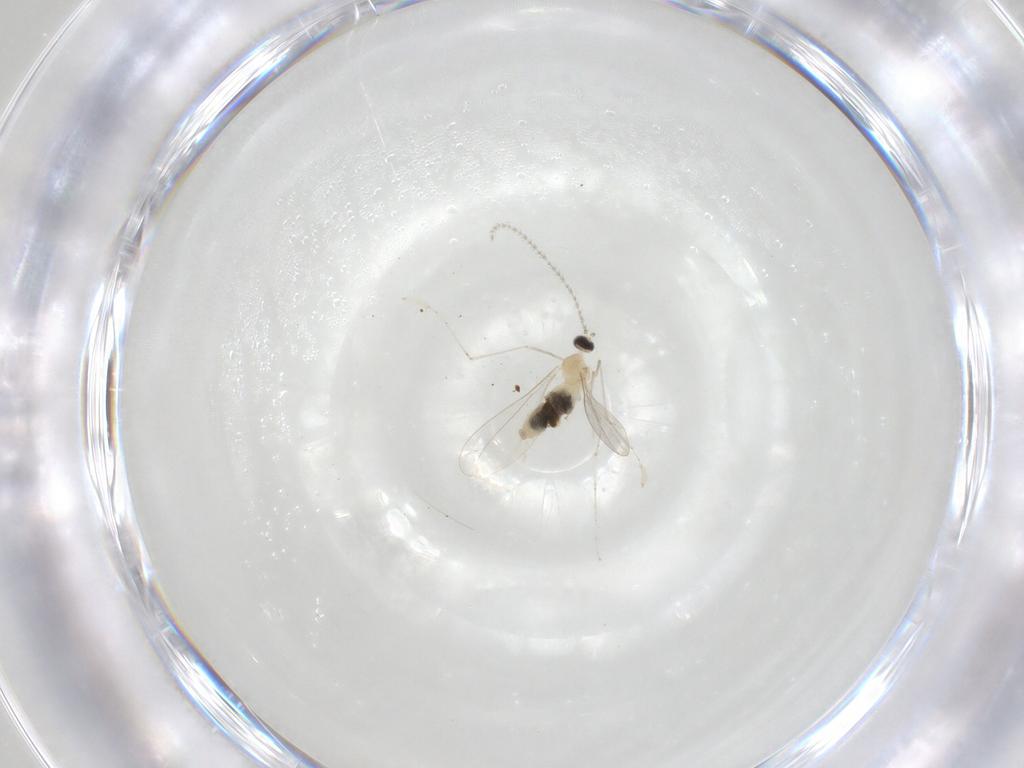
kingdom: Animalia
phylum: Arthropoda
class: Insecta
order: Diptera
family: Cecidomyiidae
